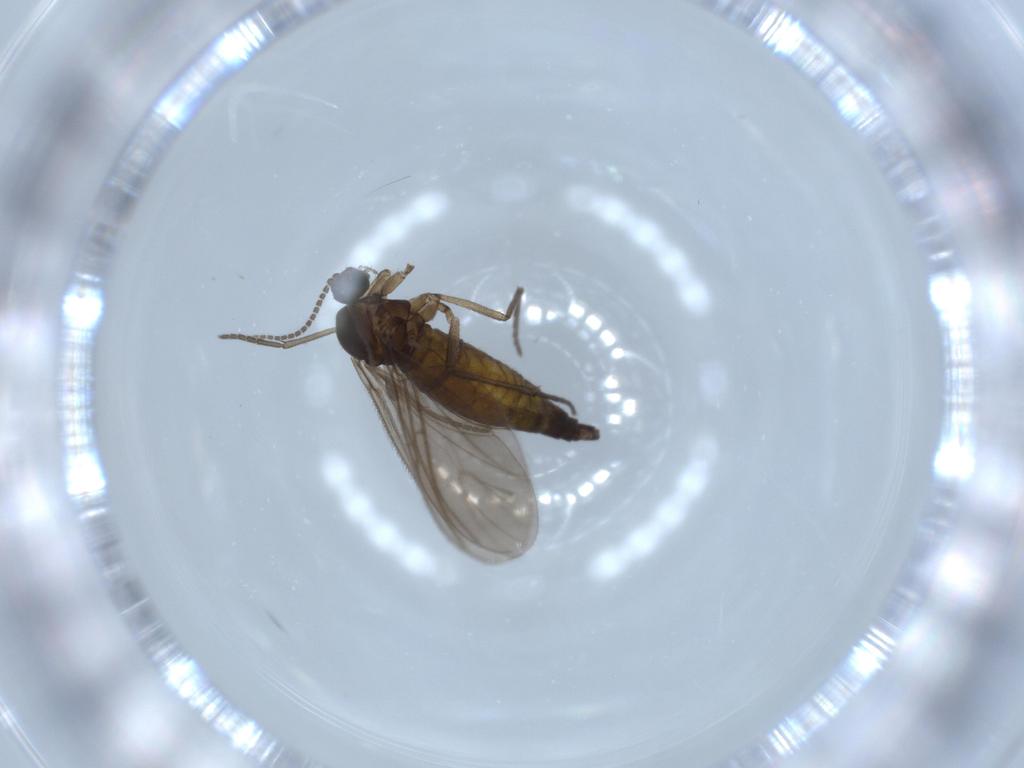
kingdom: Animalia
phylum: Arthropoda
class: Insecta
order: Diptera
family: Sciaridae
